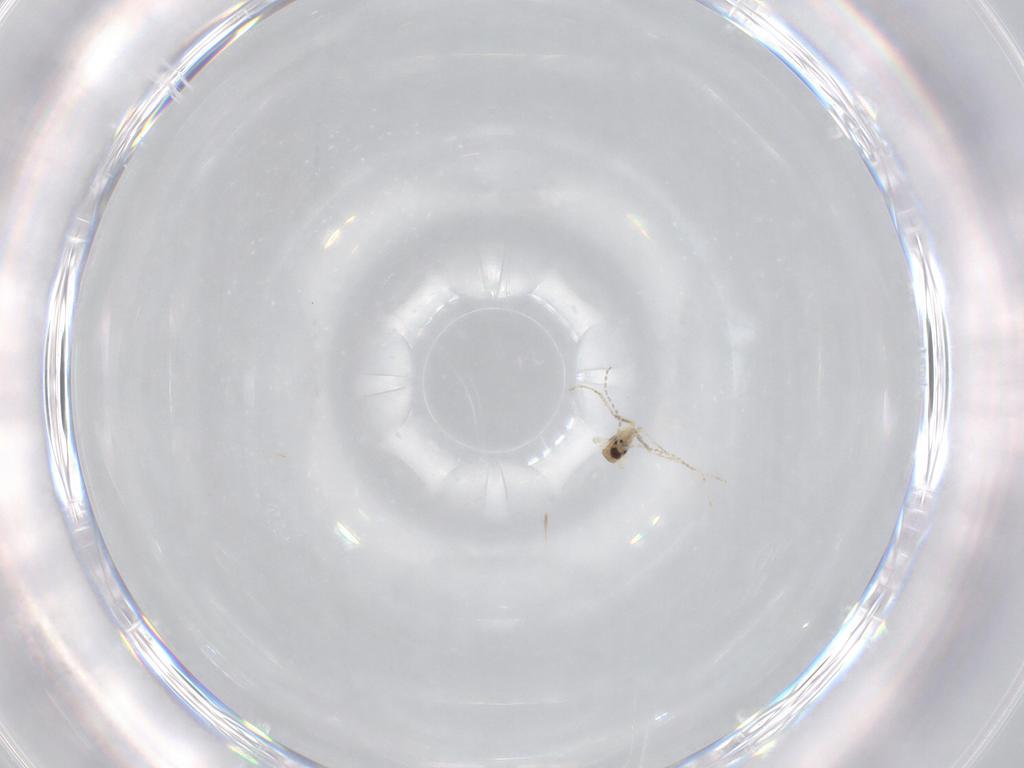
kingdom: Animalia
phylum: Arthropoda
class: Insecta
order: Diptera
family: Cecidomyiidae
